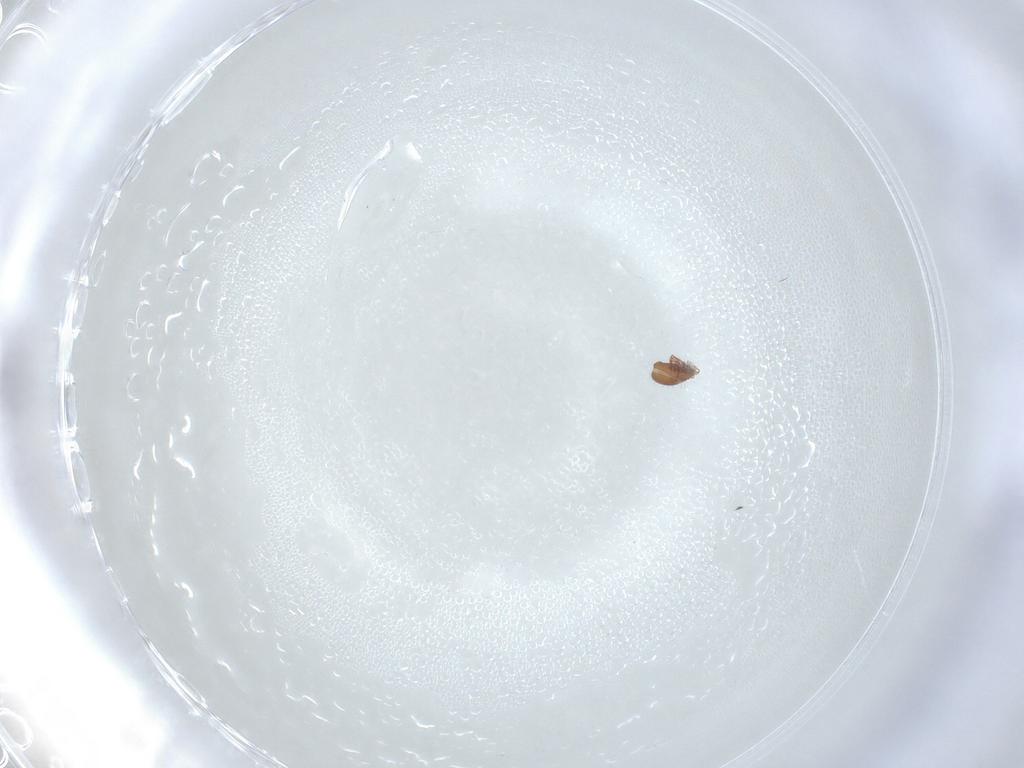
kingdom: Animalia
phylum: Arthropoda
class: Arachnida
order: Sarcoptiformes
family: Oribatulidae
